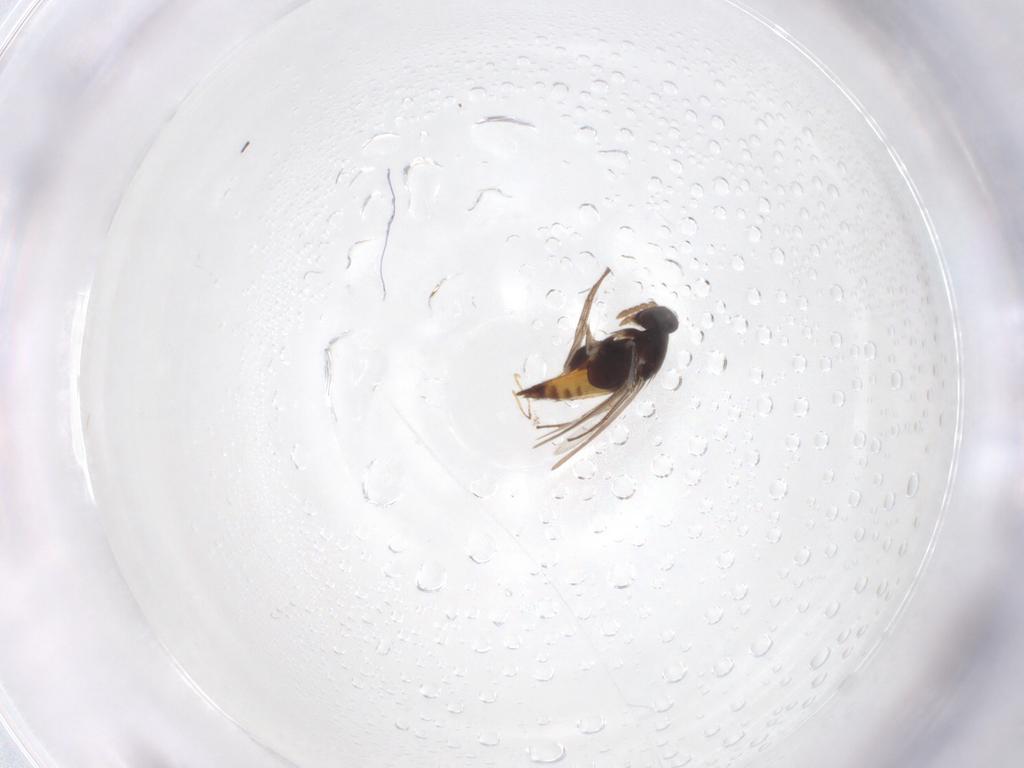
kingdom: Animalia
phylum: Arthropoda
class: Insecta
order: Hymenoptera
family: Eulophidae
